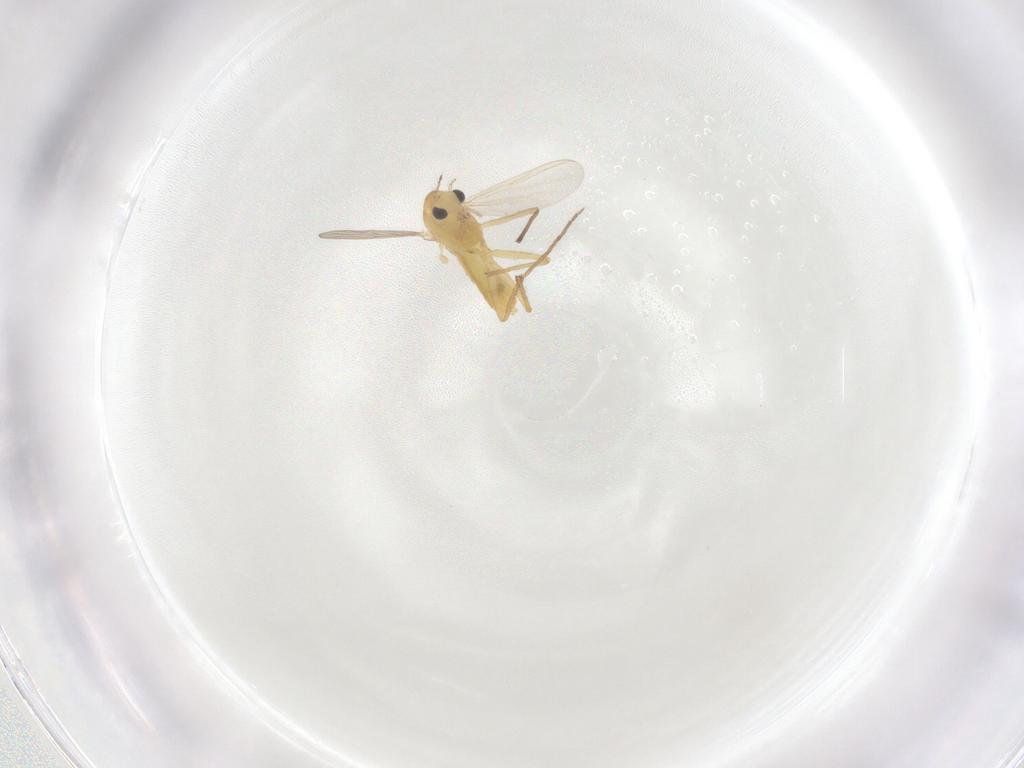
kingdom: Animalia
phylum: Arthropoda
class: Insecta
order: Diptera
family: Chironomidae
